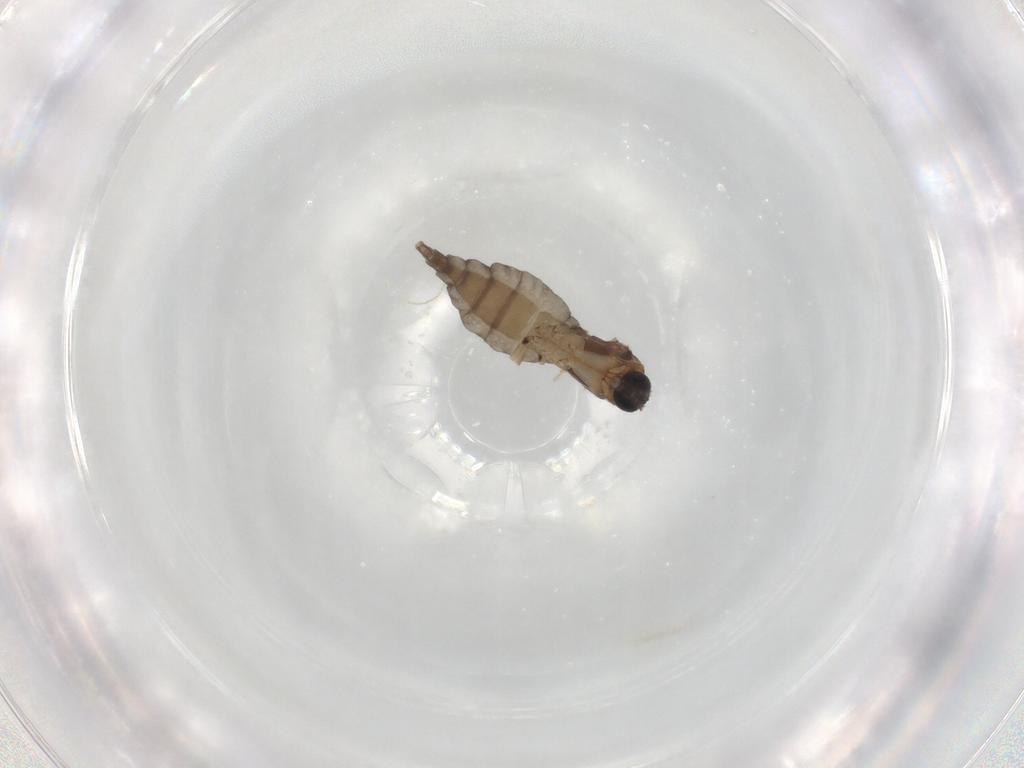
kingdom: Animalia
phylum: Arthropoda
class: Insecta
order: Diptera
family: Sciaridae
